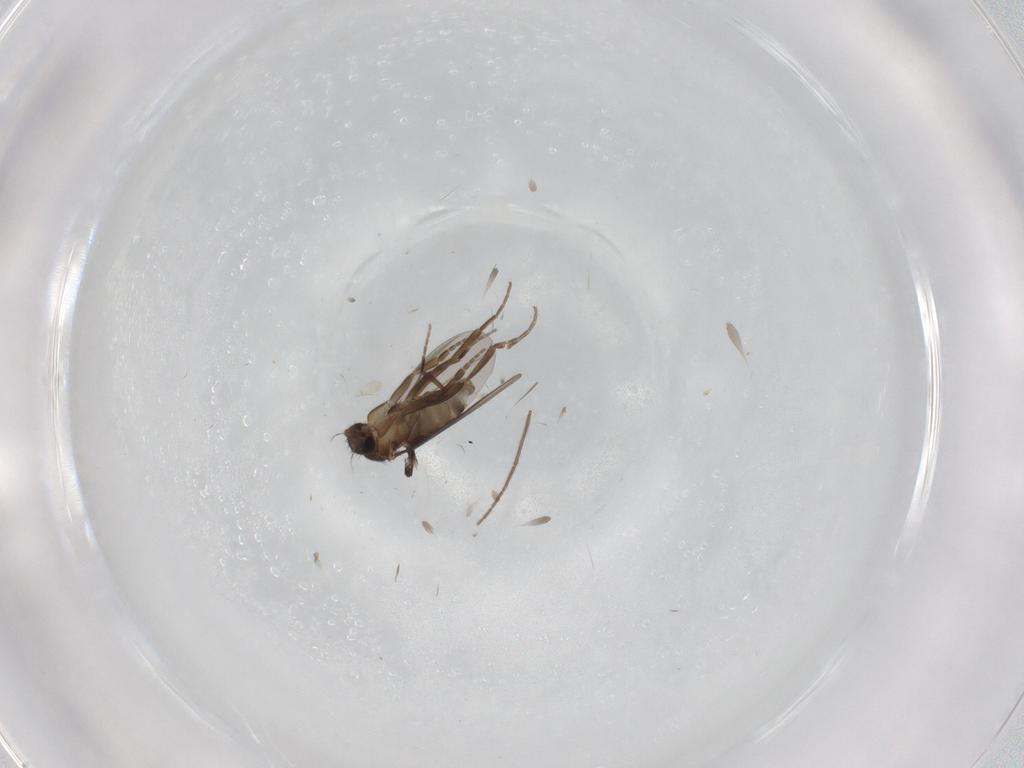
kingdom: Animalia
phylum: Arthropoda
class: Insecta
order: Diptera
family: Phoridae
